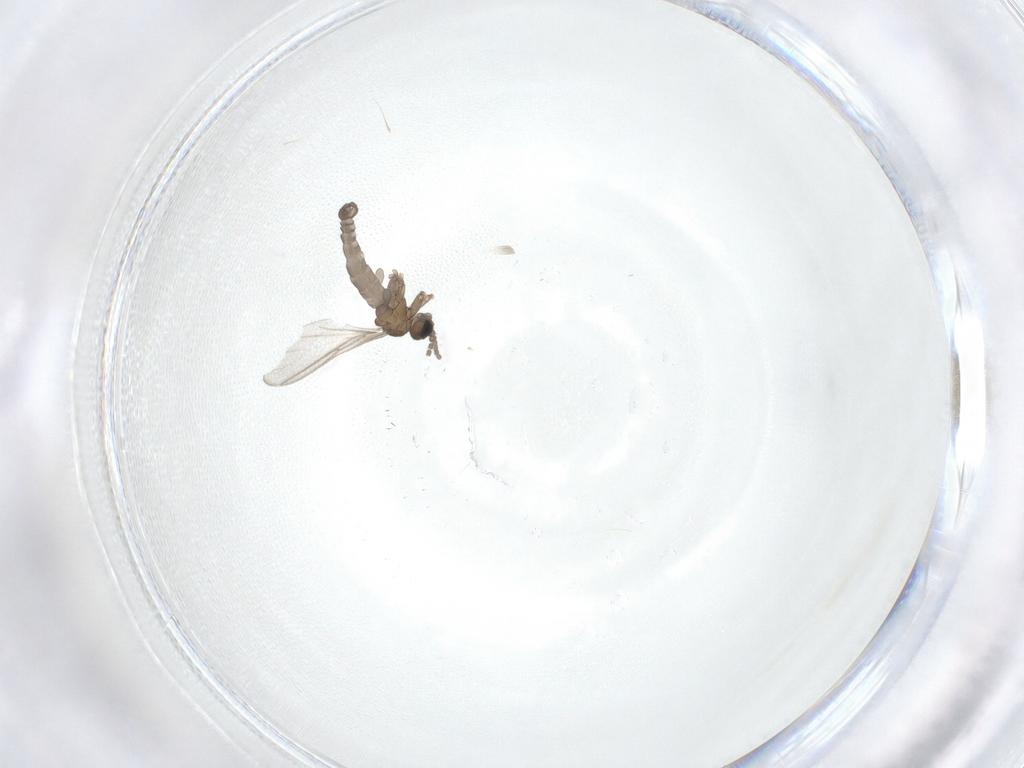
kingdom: Animalia
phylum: Arthropoda
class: Insecta
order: Diptera
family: Sciaridae
